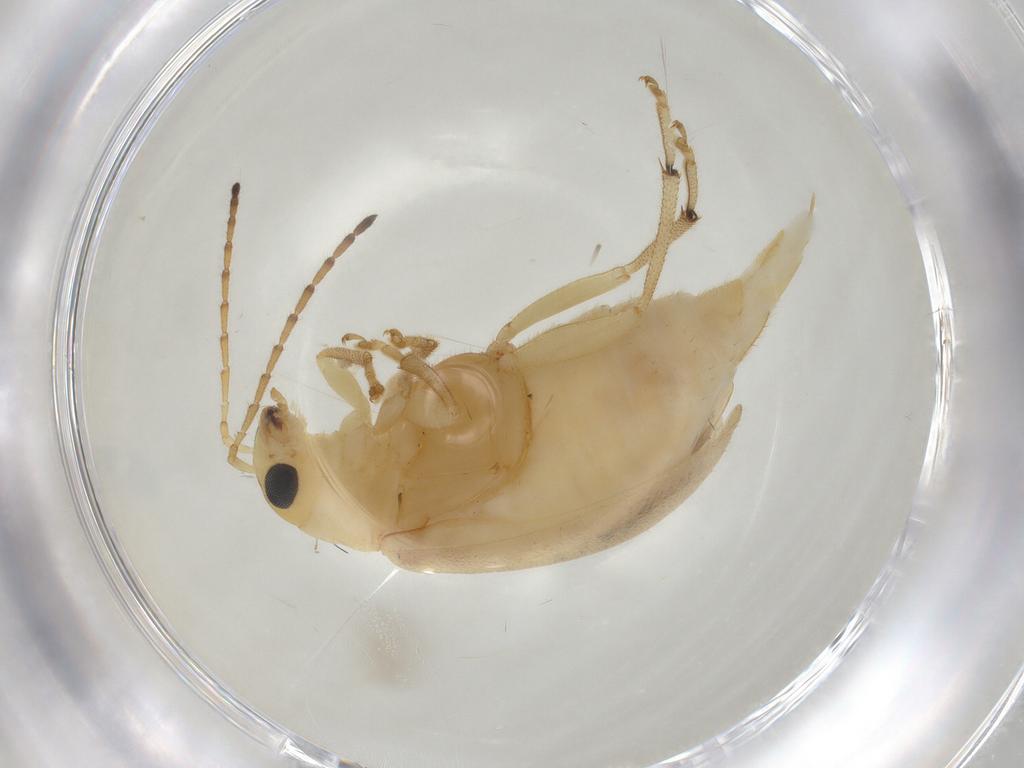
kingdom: Animalia
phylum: Arthropoda
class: Insecta
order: Coleoptera
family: Chrysomelidae
